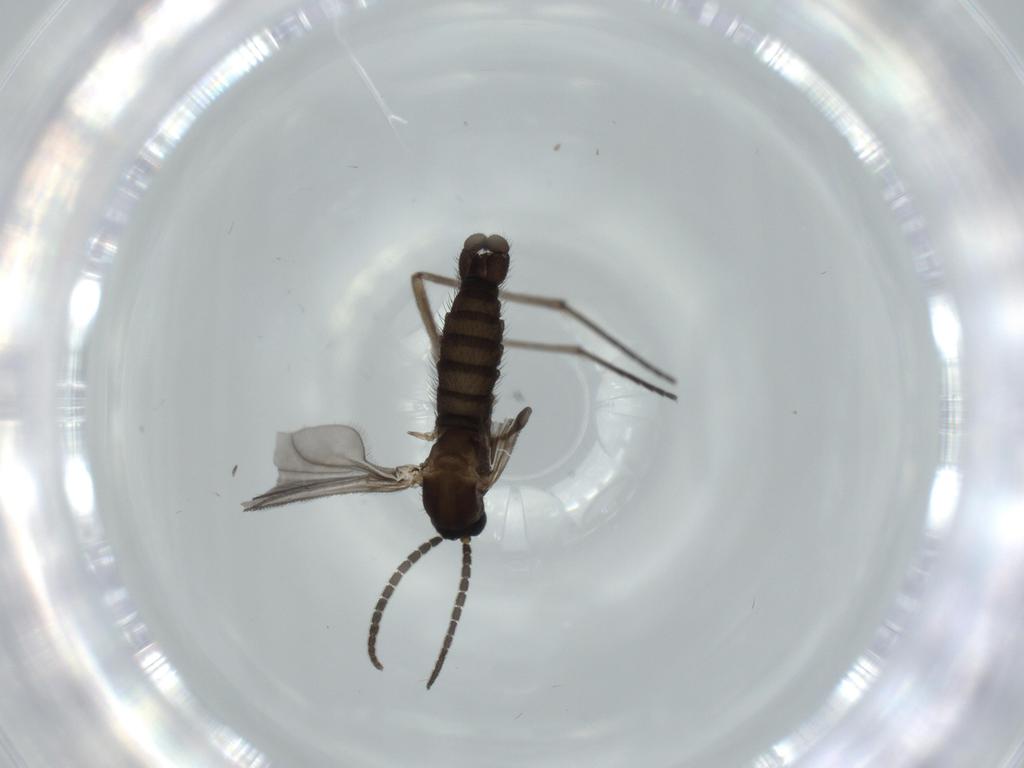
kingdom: Animalia
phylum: Arthropoda
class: Insecta
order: Diptera
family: Sciaridae
